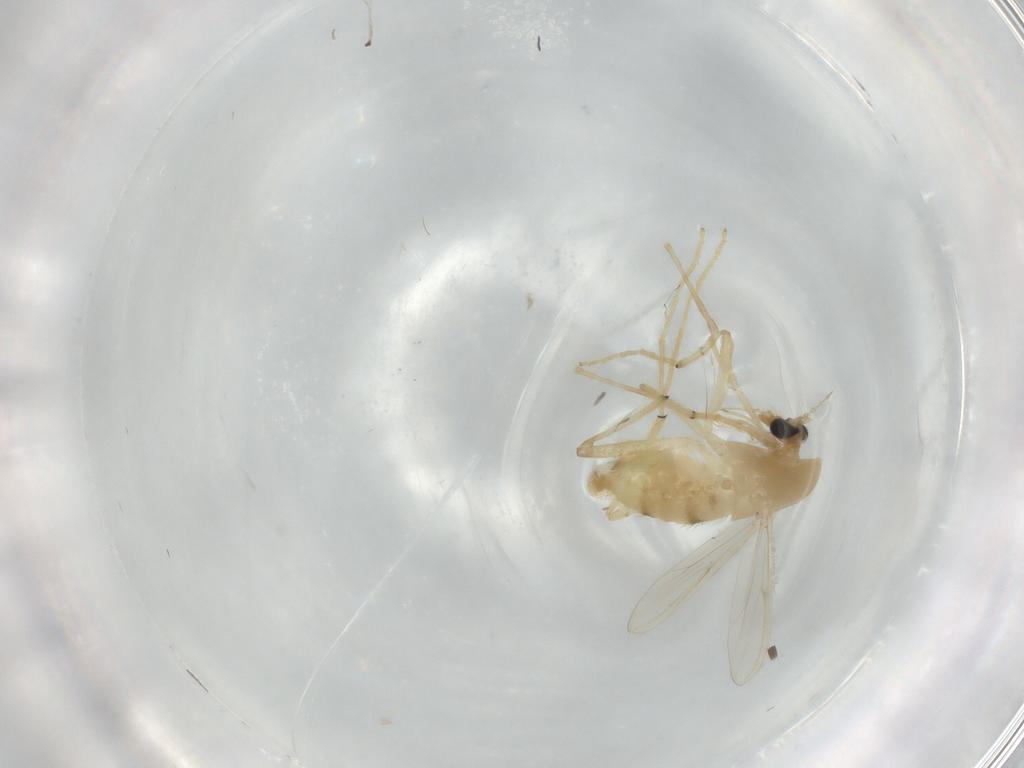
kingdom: Animalia
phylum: Arthropoda
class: Insecta
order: Diptera
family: Chironomidae
